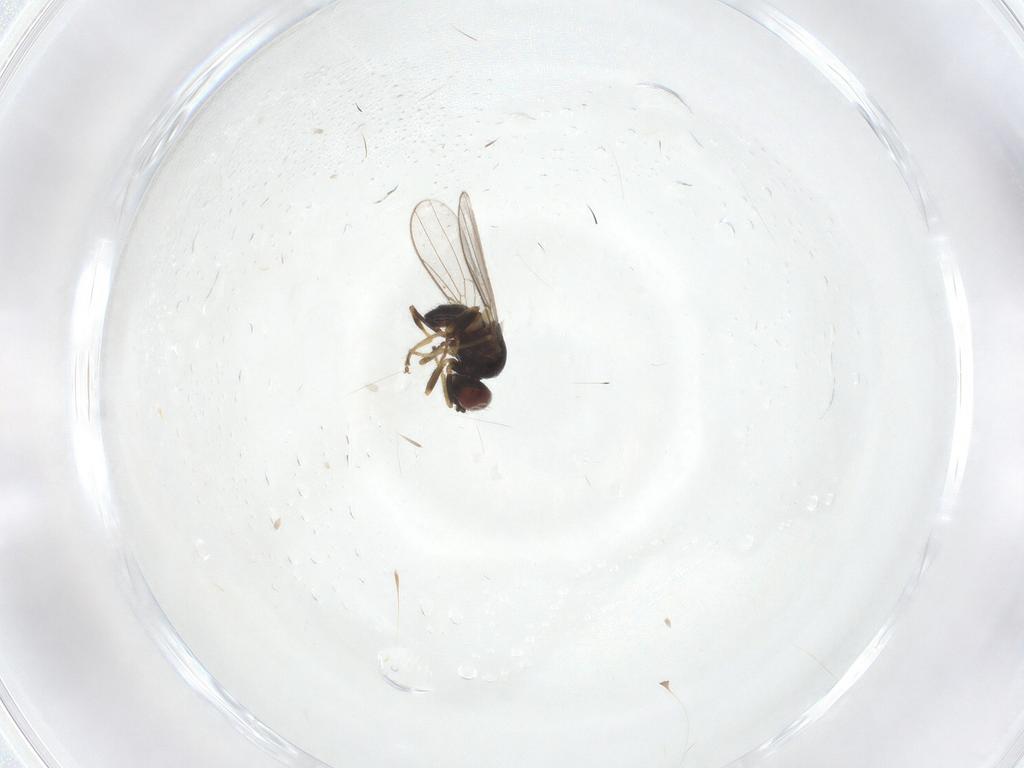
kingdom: Animalia
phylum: Arthropoda
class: Insecta
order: Diptera
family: Chloropidae
